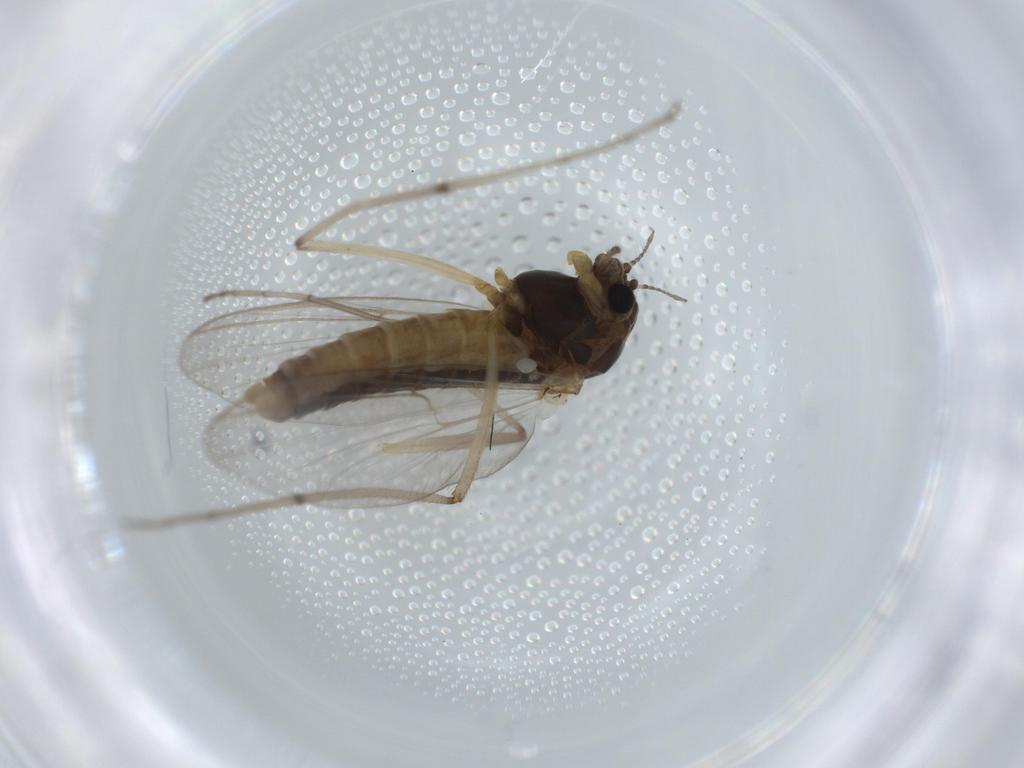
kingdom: Animalia
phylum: Arthropoda
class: Insecta
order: Diptera
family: Chironomidae
